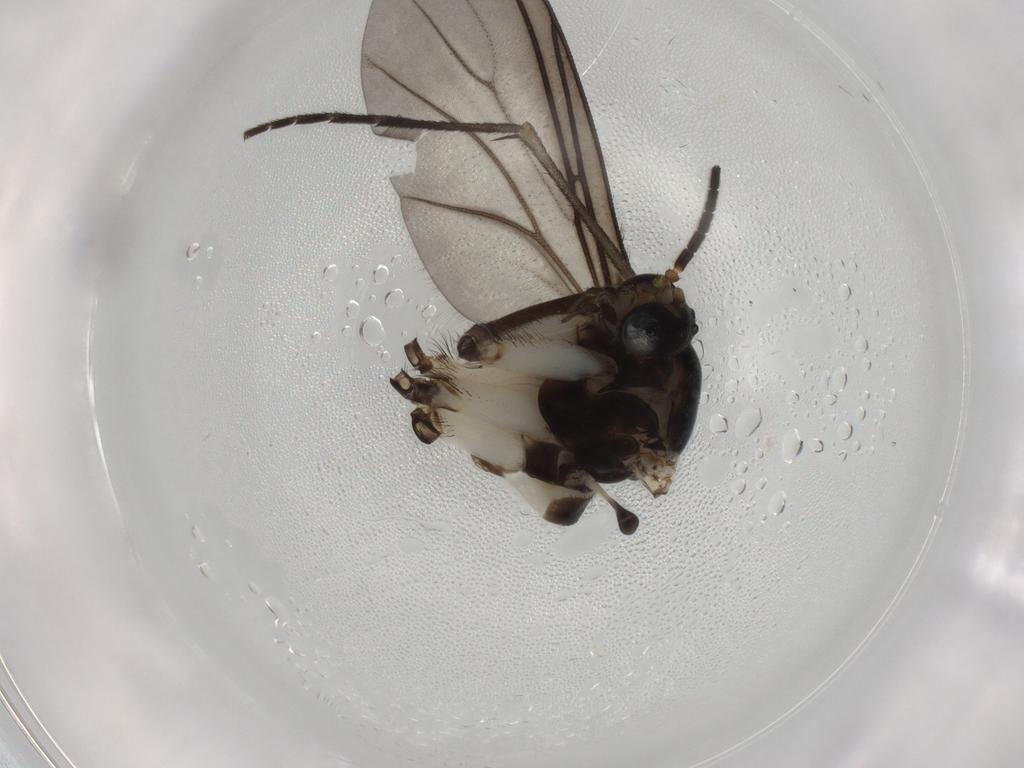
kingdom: Animalia
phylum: Arthropoda
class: Insecta
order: Diptera
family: Sciaridae
